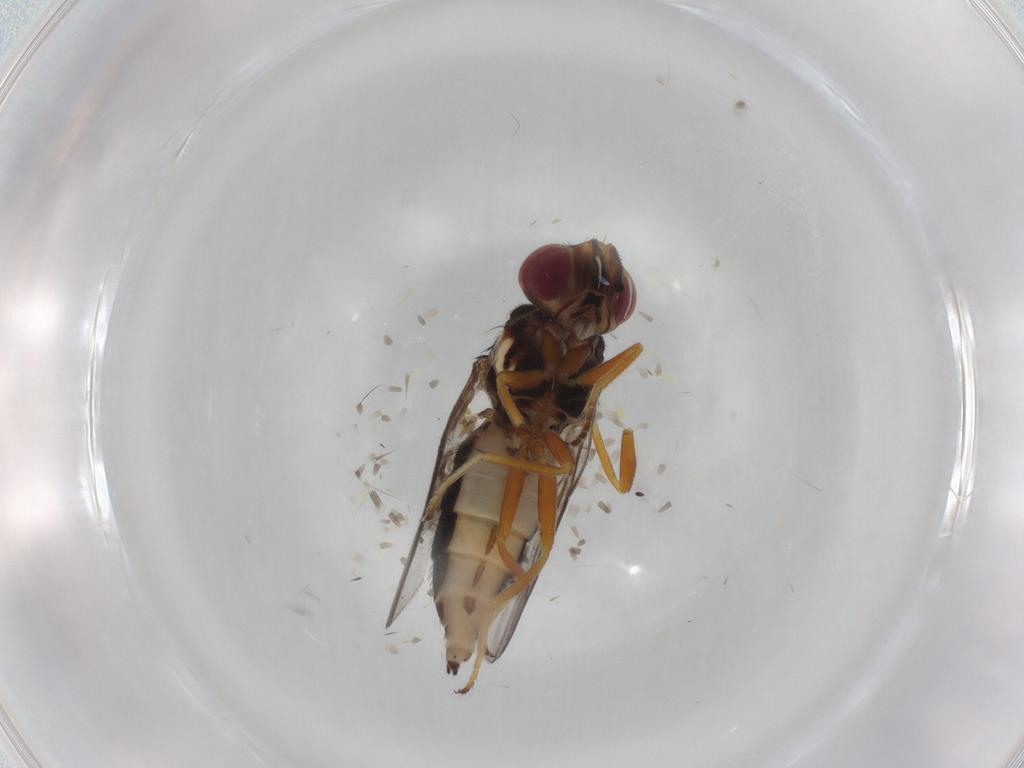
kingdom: Animalia
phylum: Arthropoda
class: Insecta
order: Diptera
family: Chloropidae
